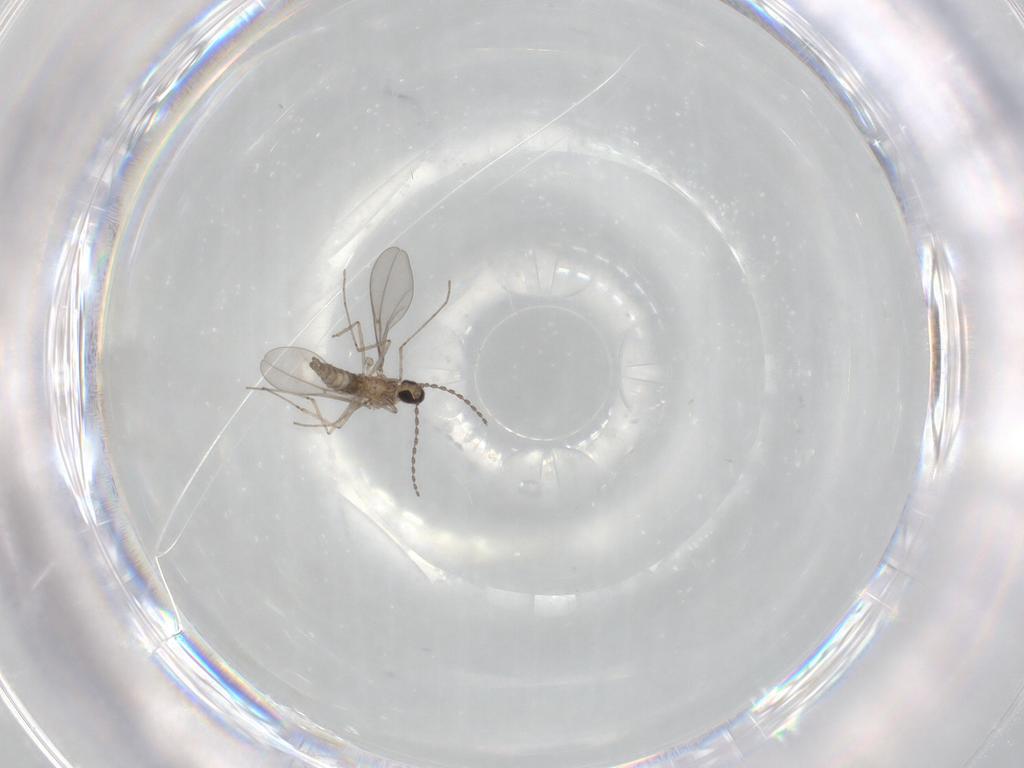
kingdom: Animalia
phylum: Arthropoda
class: Insecta
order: Diptera
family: Cecidomyiidae
